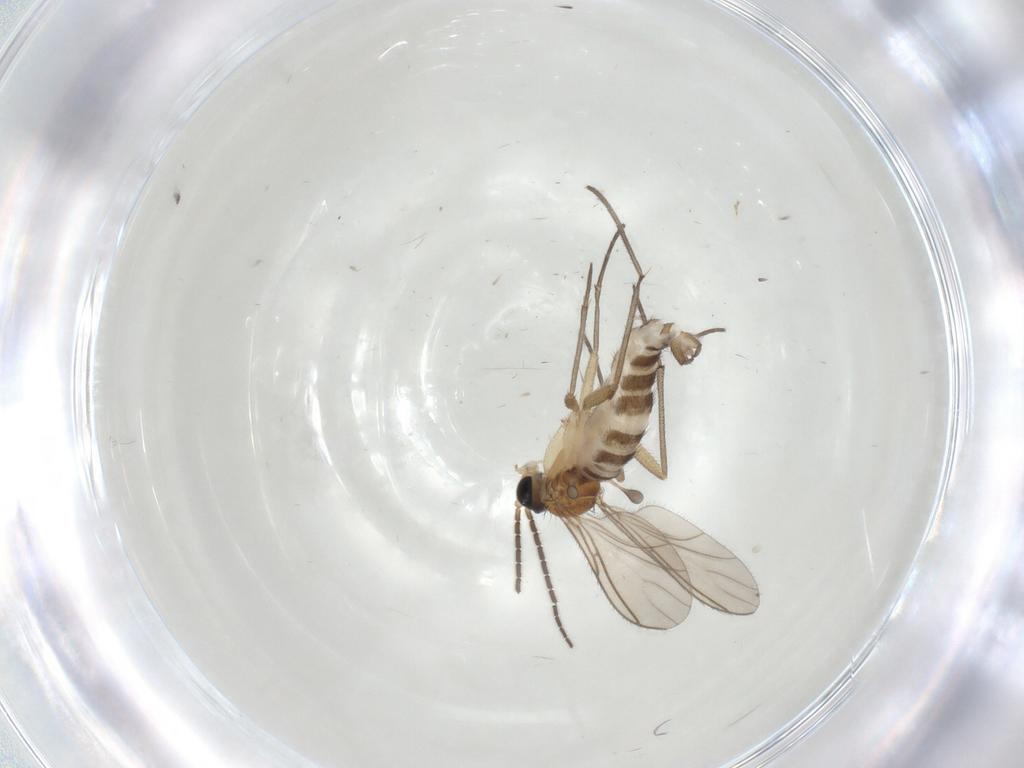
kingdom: Animalia
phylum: Arthropoda
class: Insecta
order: Diptera
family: Sciaridae
